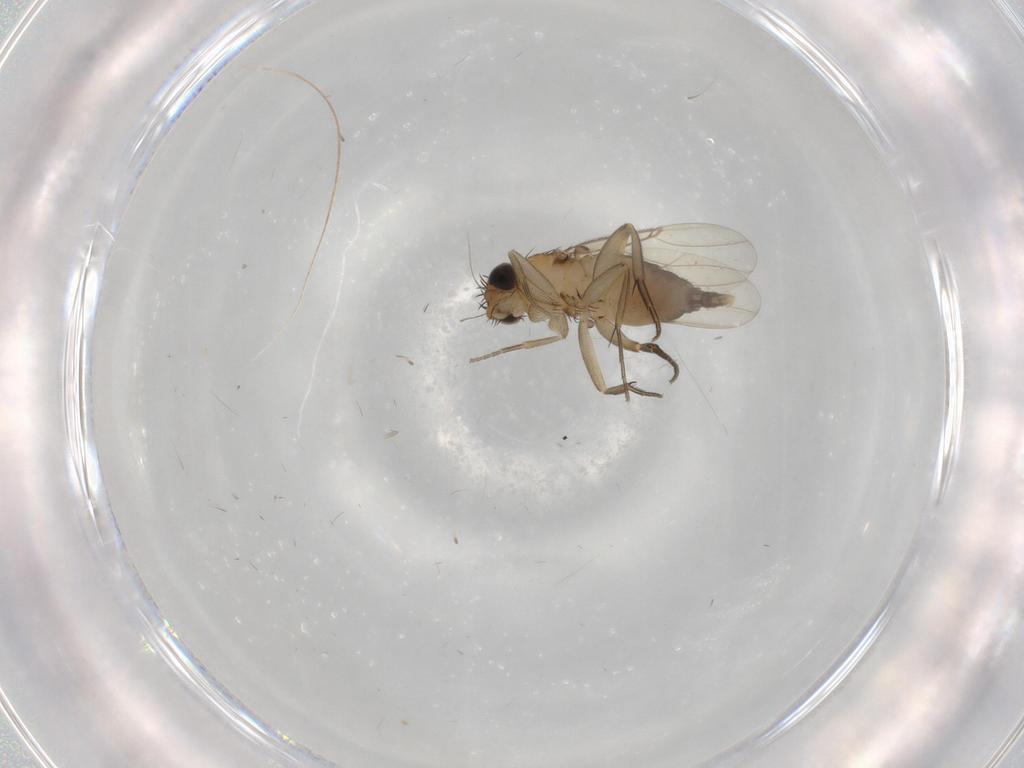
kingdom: Animalia
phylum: Arthropoda
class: Insecta
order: Diptera
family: Phoridae
